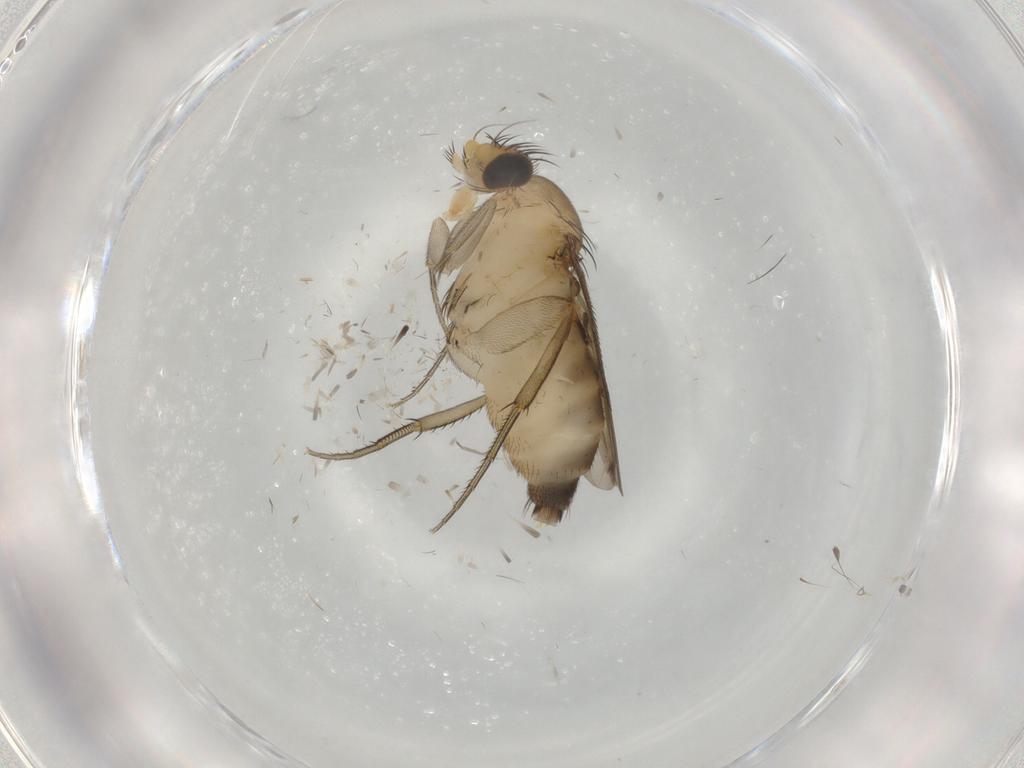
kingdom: Animalia
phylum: Arthropoda
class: Insecta
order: Diptera
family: Phoridae
